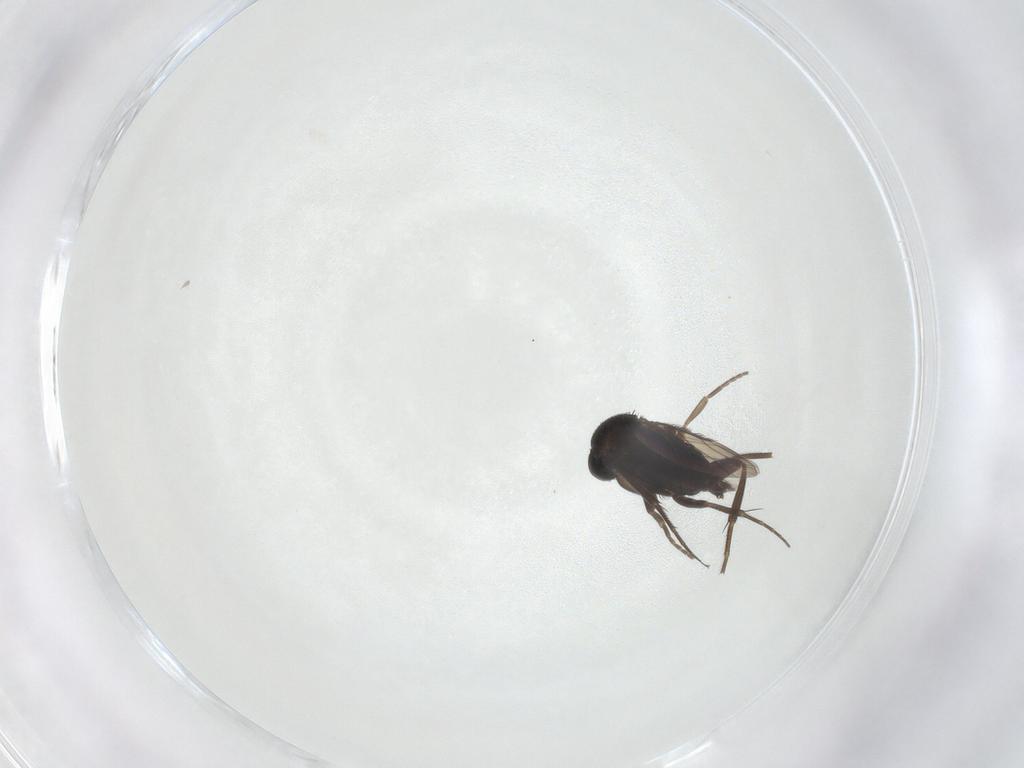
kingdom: Animalia
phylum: Arthropoda
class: Insecta
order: Diptera
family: Phoridae
